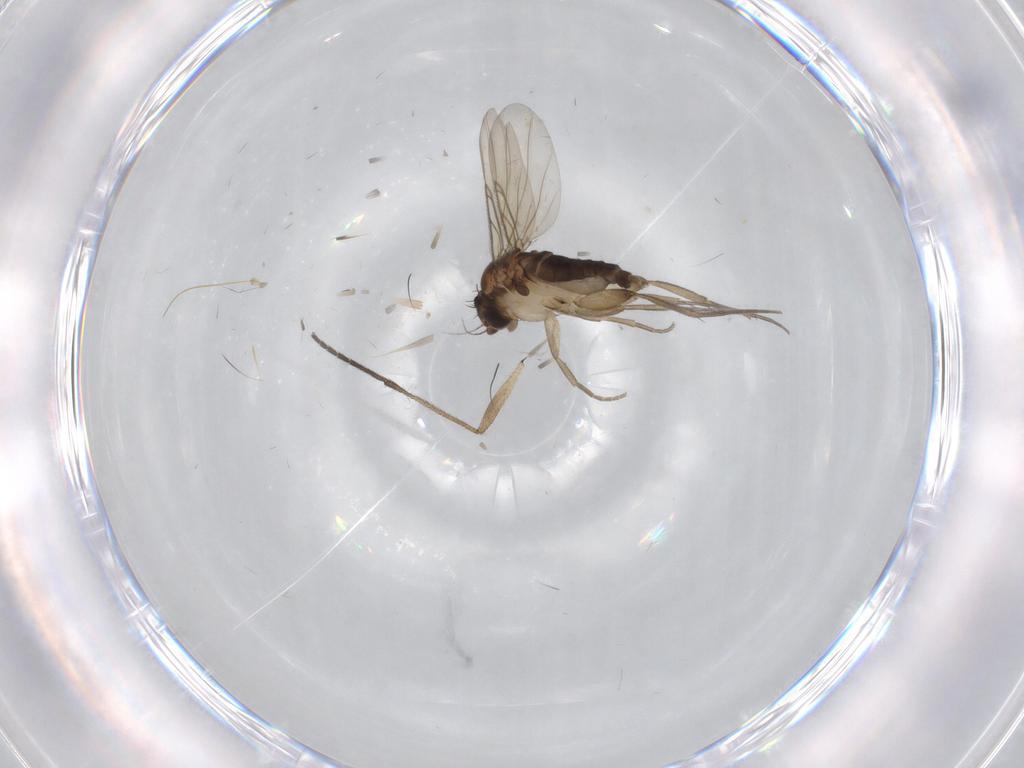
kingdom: Animalia
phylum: Arthropoda
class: Insecta
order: Diptera
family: Phoridae
